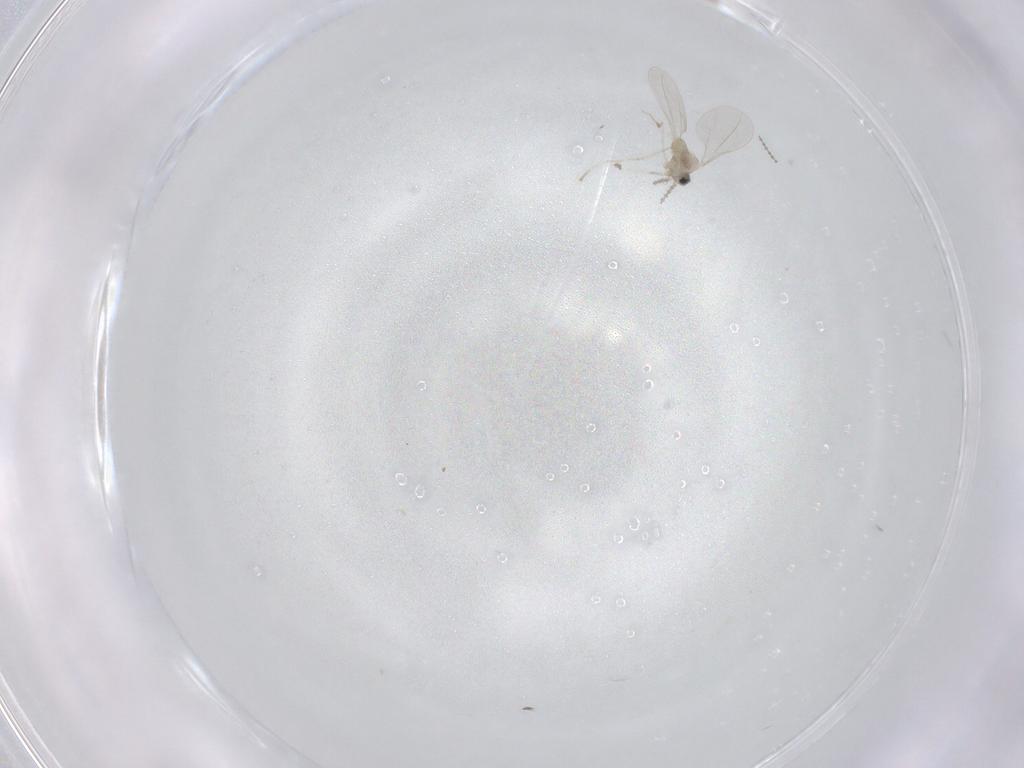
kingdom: Animalia
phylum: Arthropoda
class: Insecta
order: Diptera
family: Cecidomyiidae
